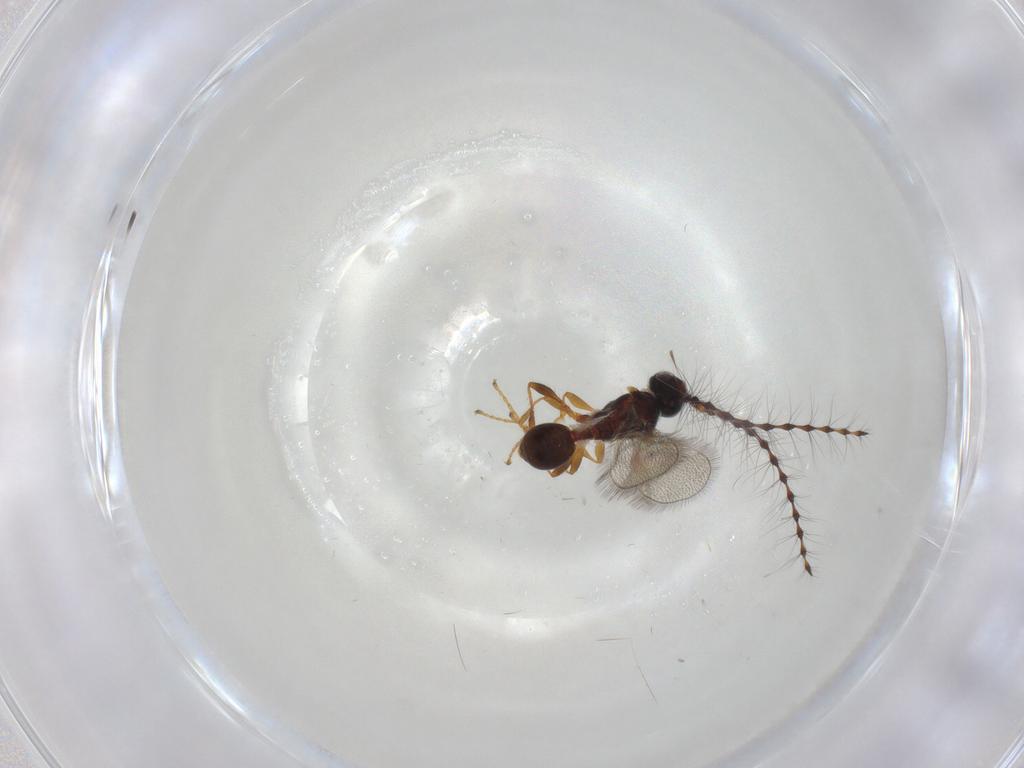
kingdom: Animalia
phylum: Arthropoda
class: Insecta
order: Hymenoptera
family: Diapriidae
